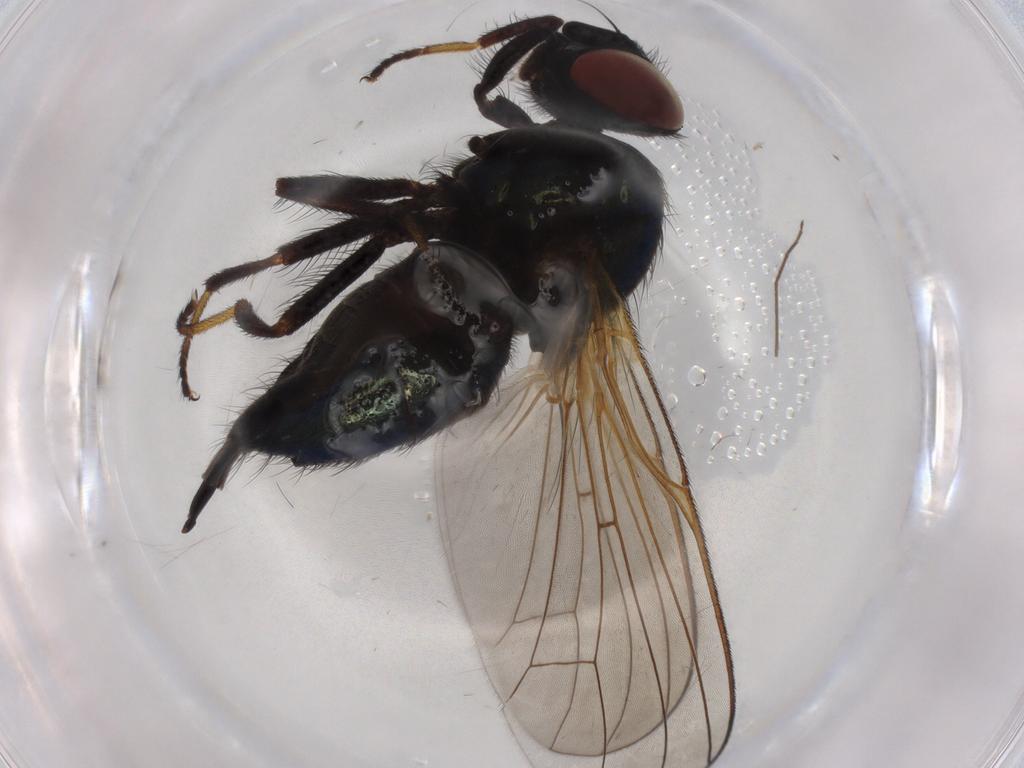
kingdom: Animalia
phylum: Arthropoda
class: Insecta
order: Diptera
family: Lonchaeidae
